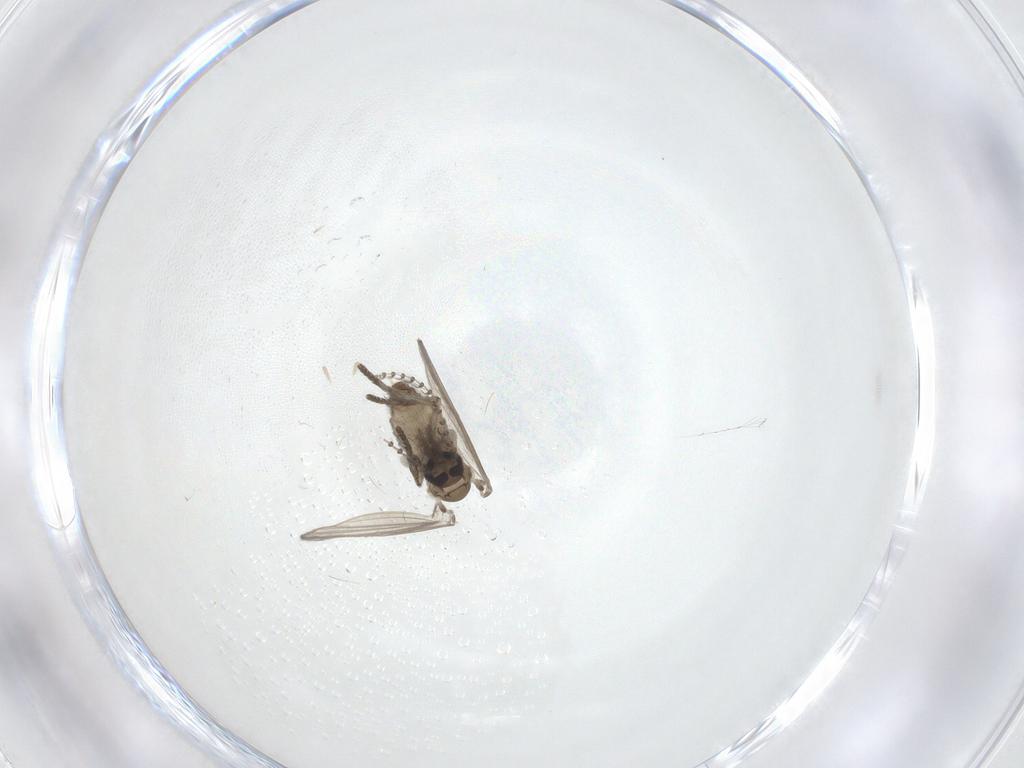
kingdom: Animalia
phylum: Arthropoda
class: Insecta
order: Diptera
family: Psychodidae
